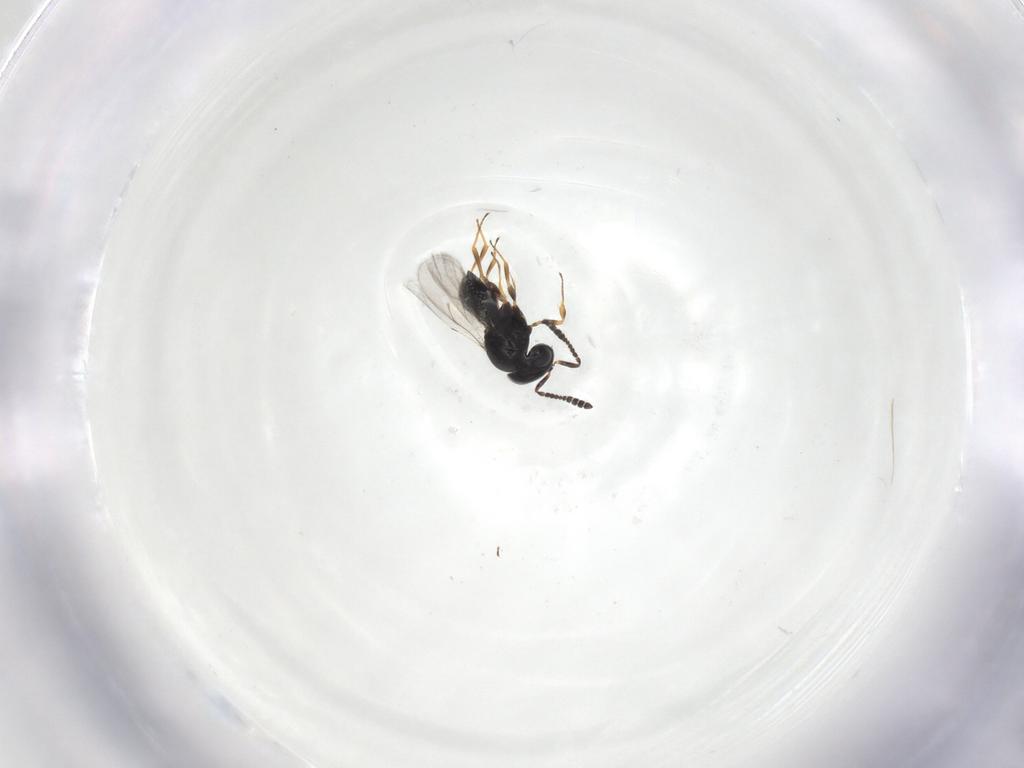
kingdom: Animalia
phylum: Arthropoda
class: Insecta
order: Hymenoptera
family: Scelionidae
